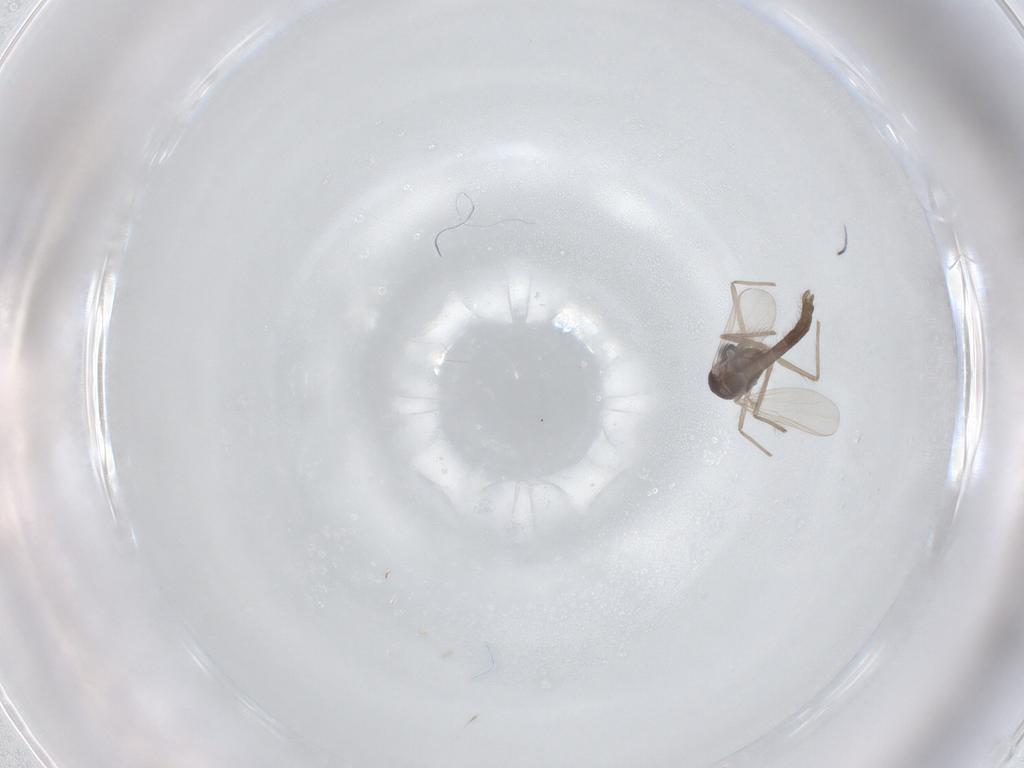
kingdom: Animalia
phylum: Arthropoda
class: Insecta
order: Diptera
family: Chironomidae
